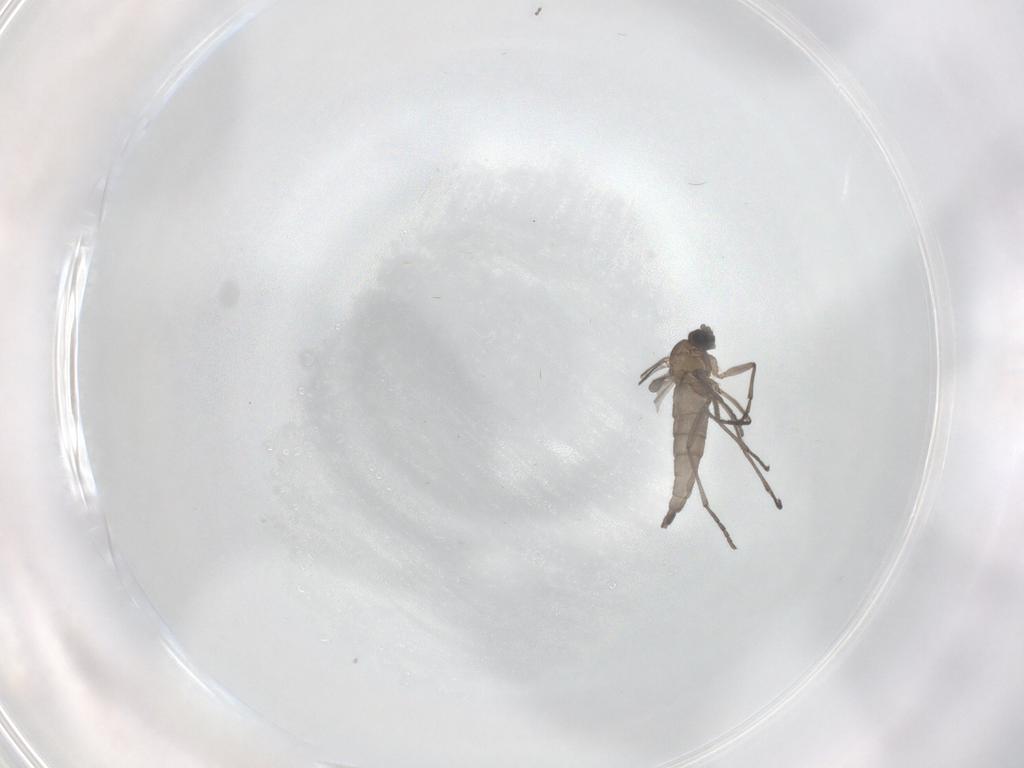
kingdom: Animalia
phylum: Arthropoda
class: Insecta
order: Diptera
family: Sciaridae
